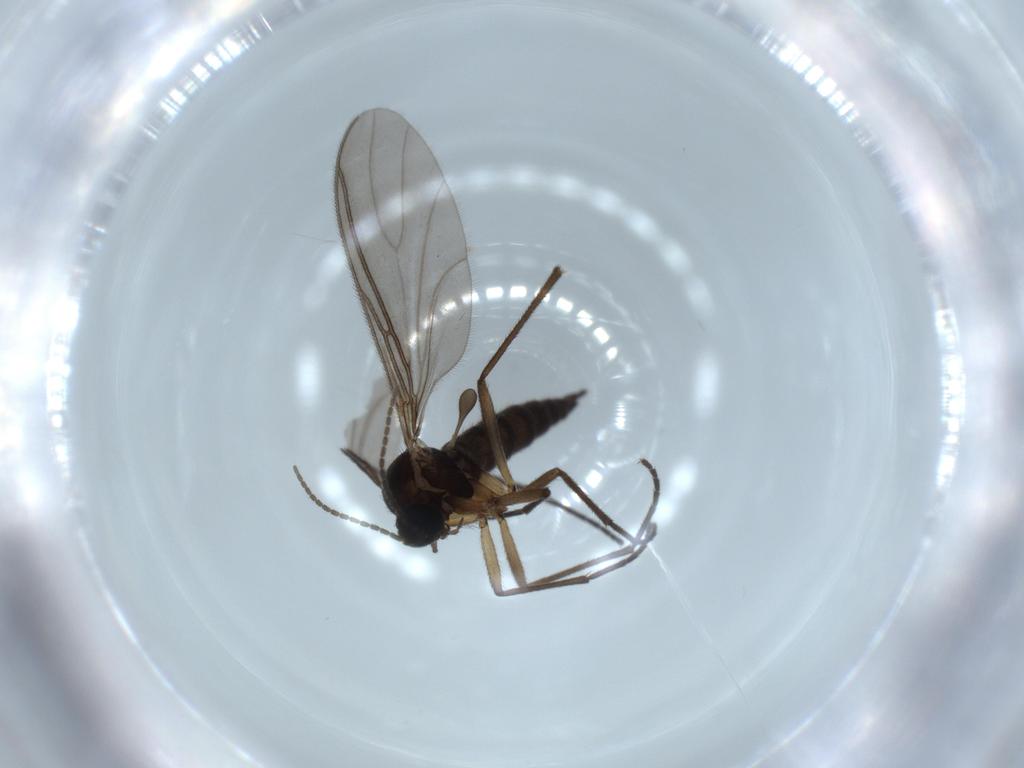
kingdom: Animalia
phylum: Arthropoda
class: Insecta
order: Diptera
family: Sciaridae
